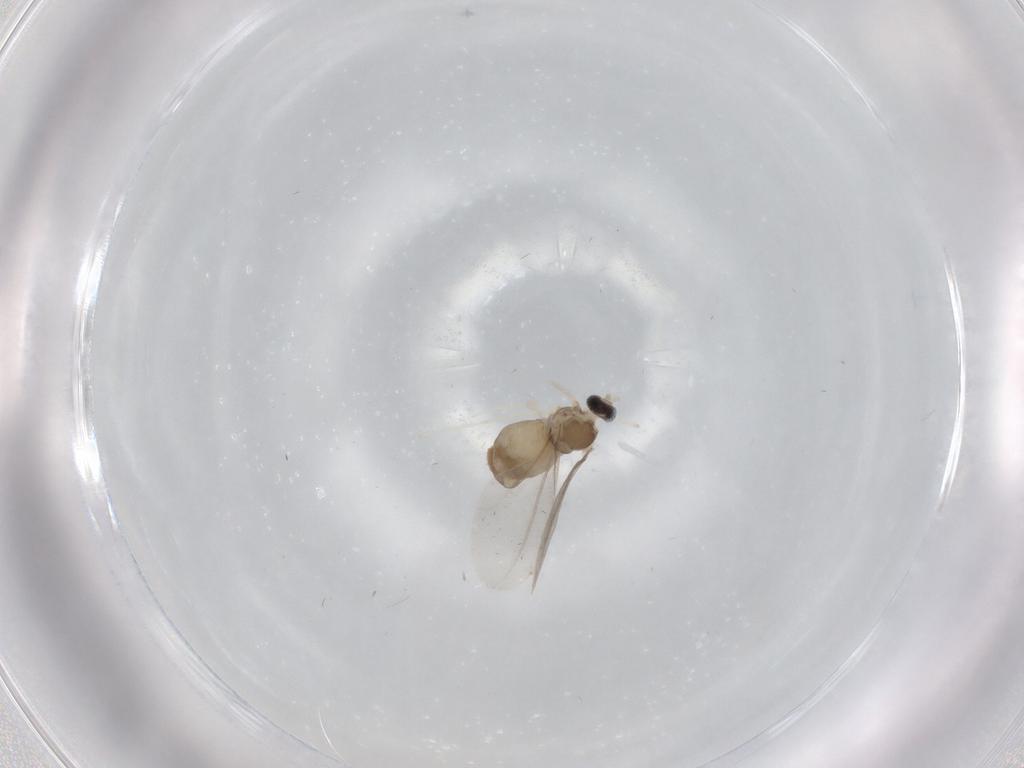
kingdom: Animalia
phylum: Arthropoda
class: Insecta
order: Diptera
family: Cecidomyiidae
